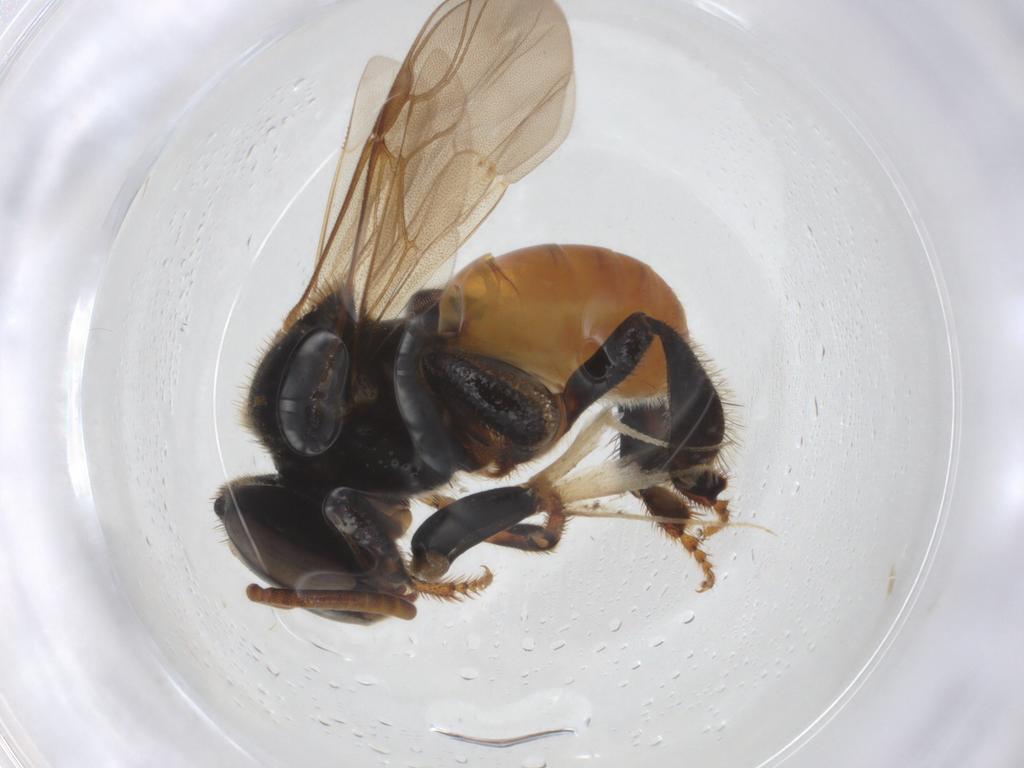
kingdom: Animalia
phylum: Arthropoda
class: Insecta
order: Hymenoptera
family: Apidae
